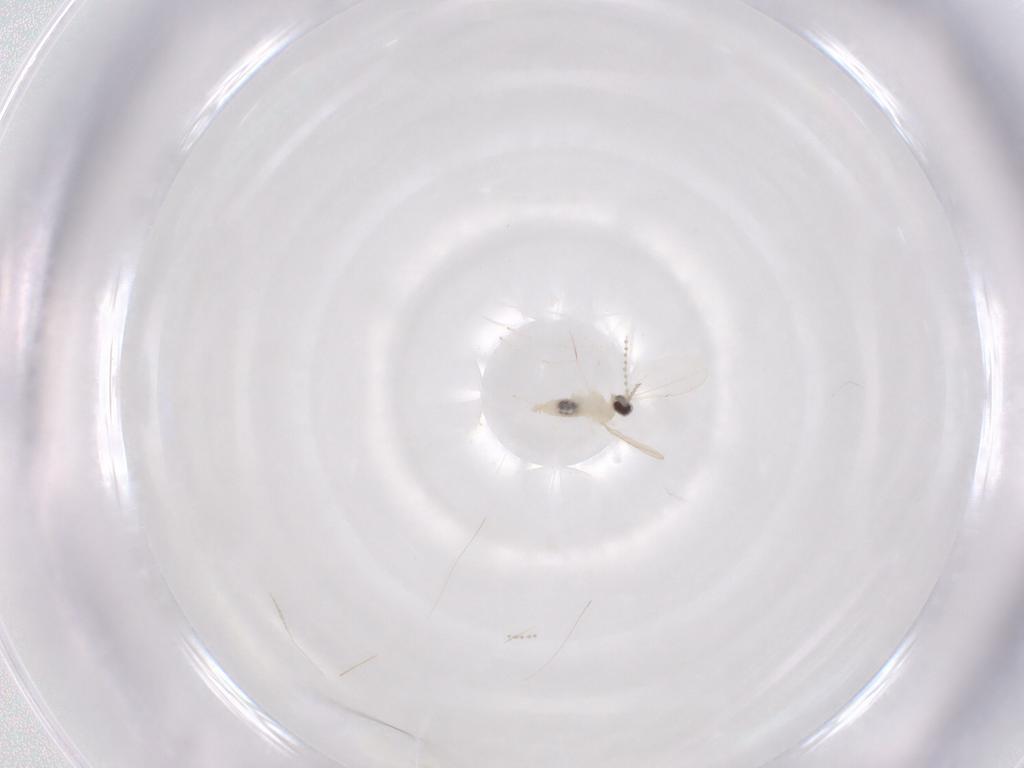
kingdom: Animalia
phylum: Arthropoda
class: Insecta
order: Diptera
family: Cecidomyiidae
